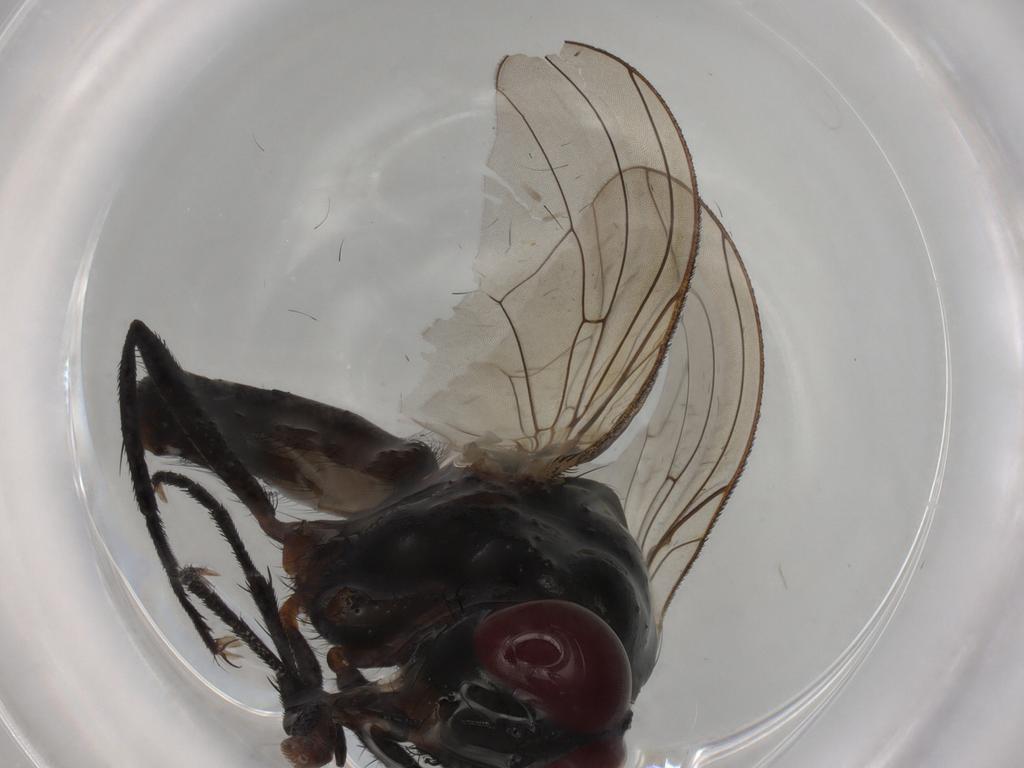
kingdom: Animalia
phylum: Arthropoda
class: Insecta
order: Diptera
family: Anthomyiidae
